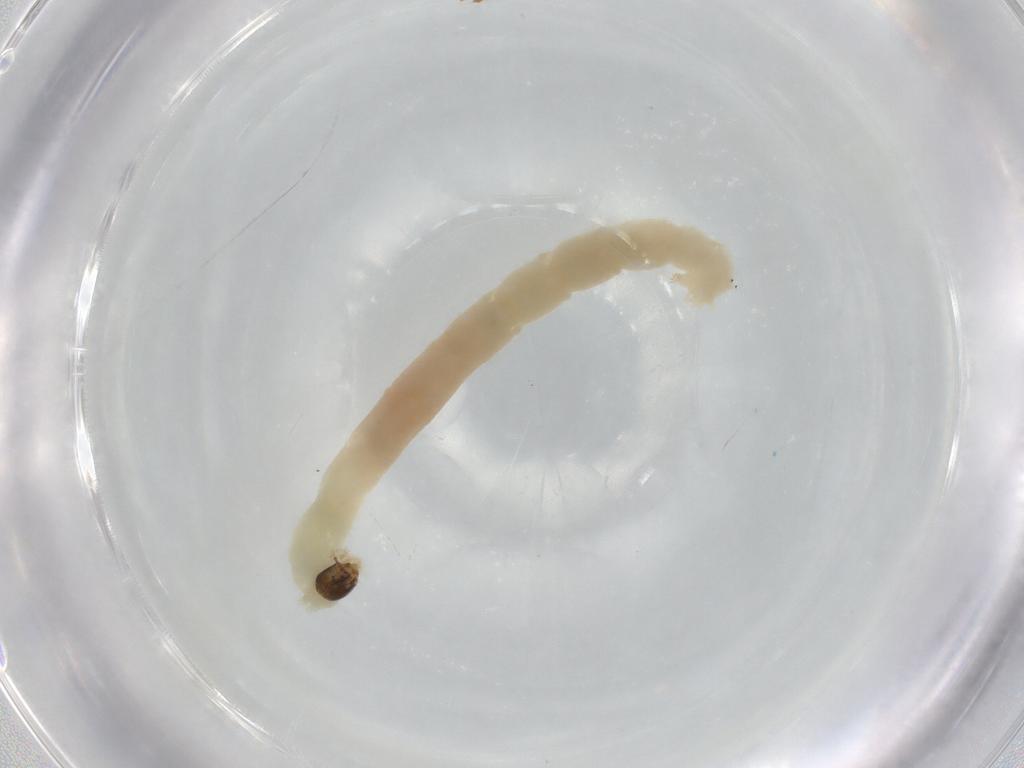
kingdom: Animalia
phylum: Arthropoda
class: Insecta
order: Diptera
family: Chironomidae
